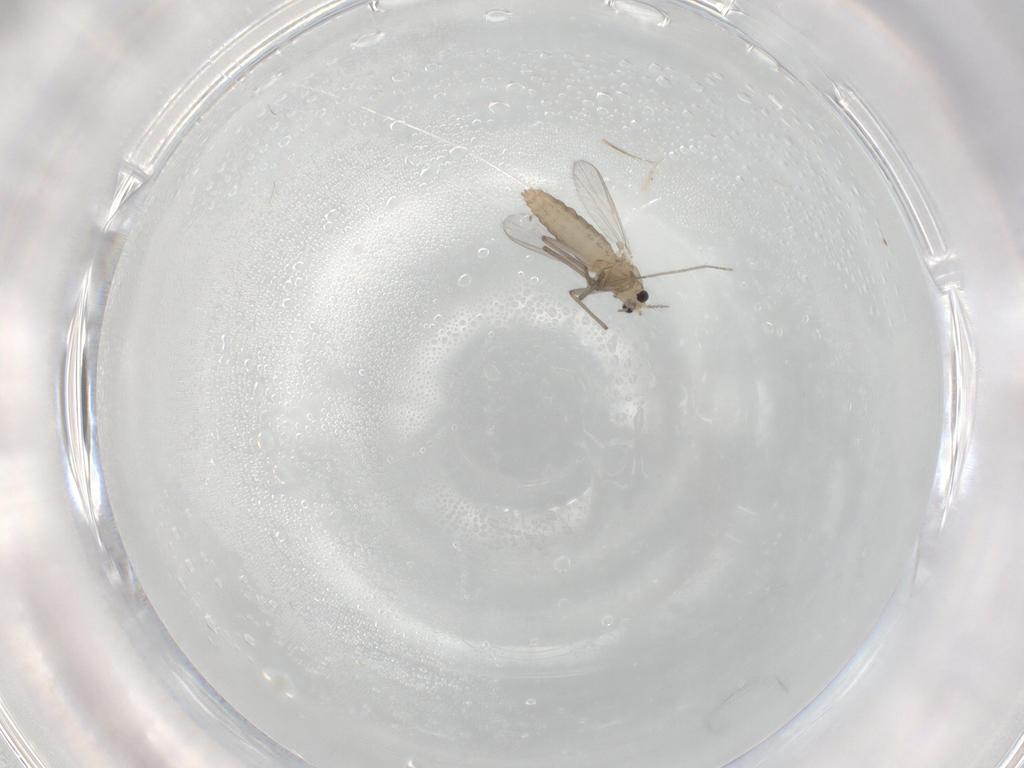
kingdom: Animalia
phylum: Arthropoda
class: Insecta
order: Diptera
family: Chironomidae
